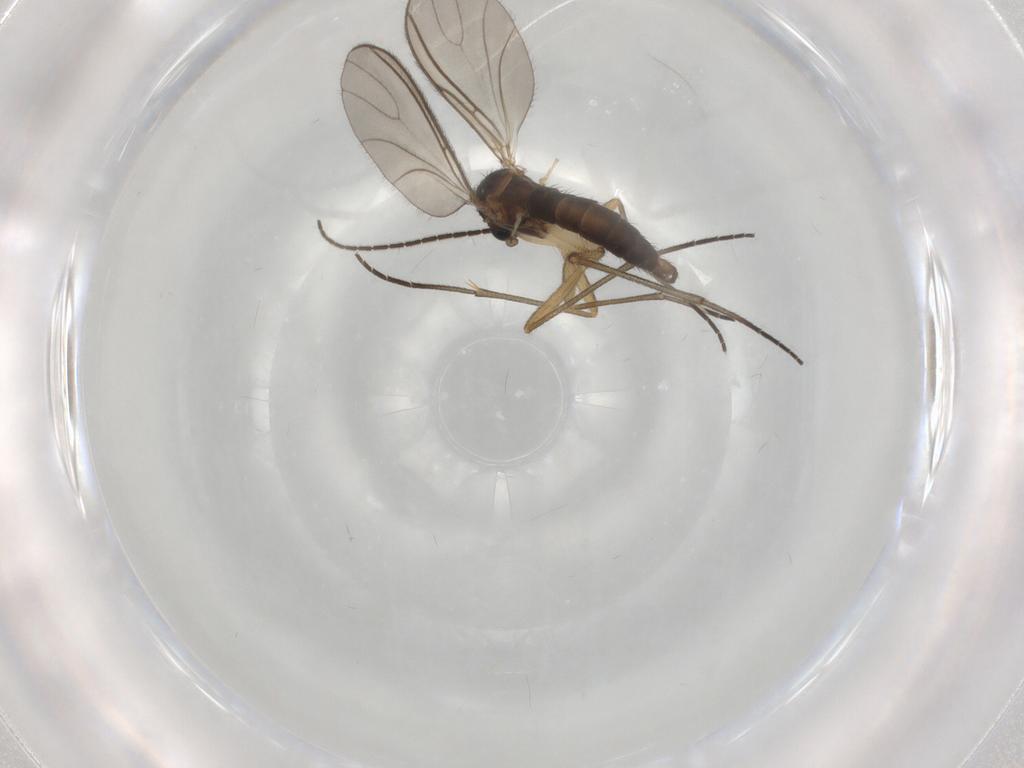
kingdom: Animalia
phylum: Arthropoda
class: Insecta
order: Diptera
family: Sciaridae
